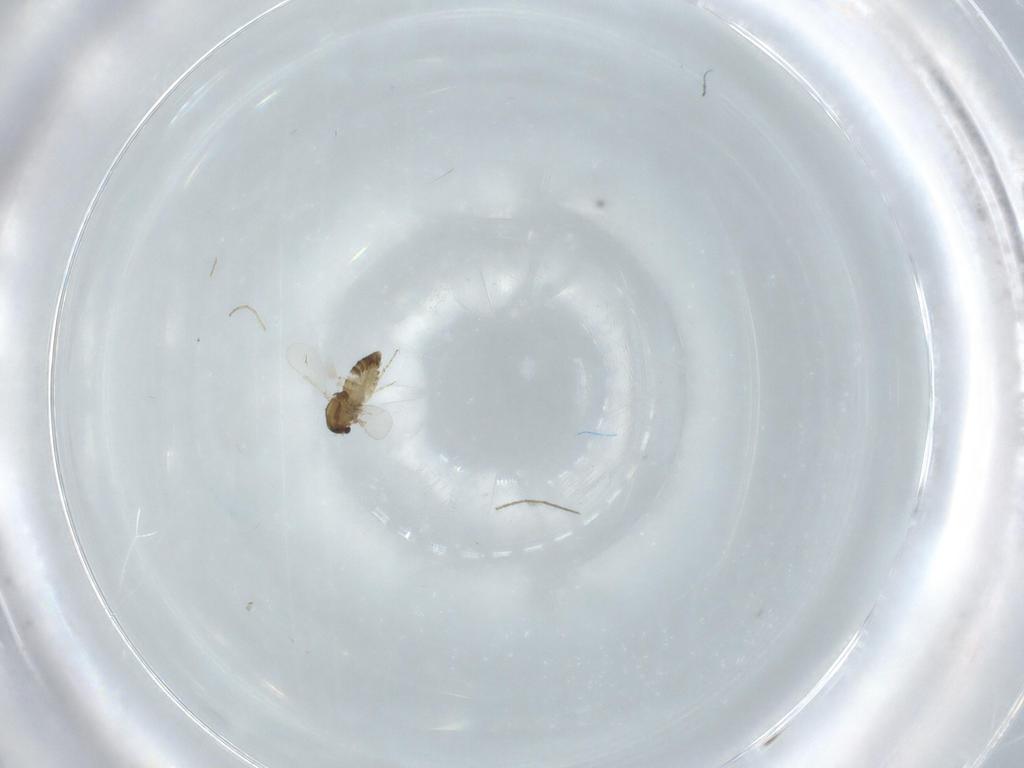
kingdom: Animalia
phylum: Arthropoda
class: Insecta
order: Diptera
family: Chironomidae
